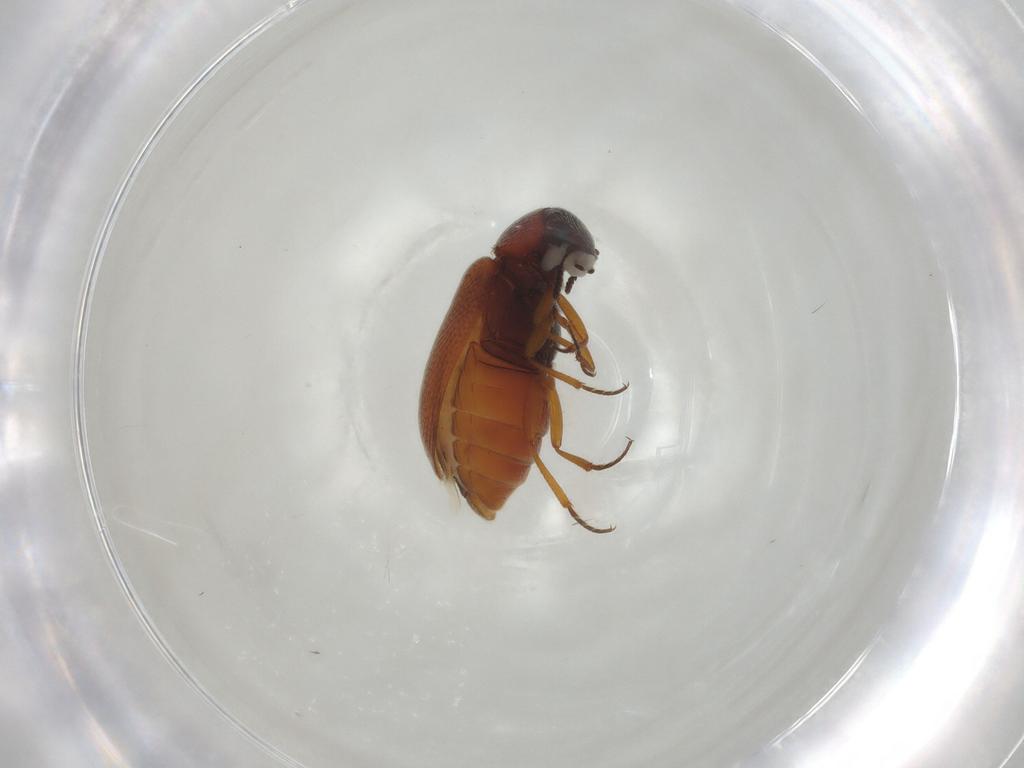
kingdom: Animalia
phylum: Arthropoda
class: Insecta
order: Coleoptera
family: Rhadalidae
